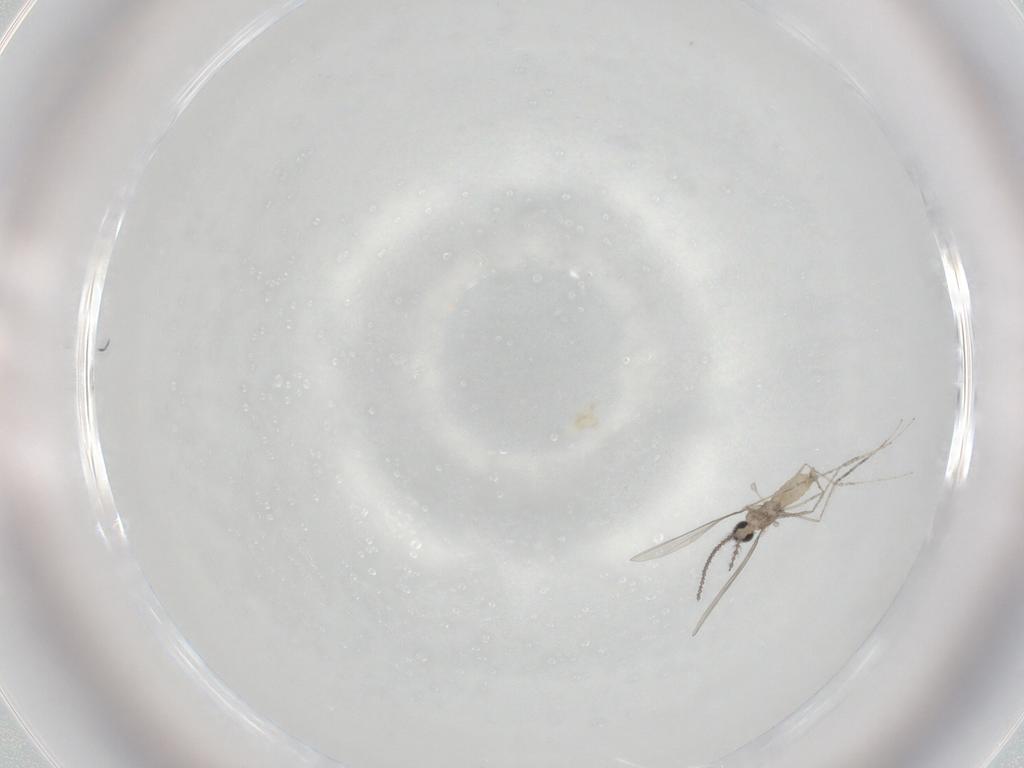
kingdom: Animalia
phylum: Arthropoda
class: Insecta
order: Diptera
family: Chironomidae
